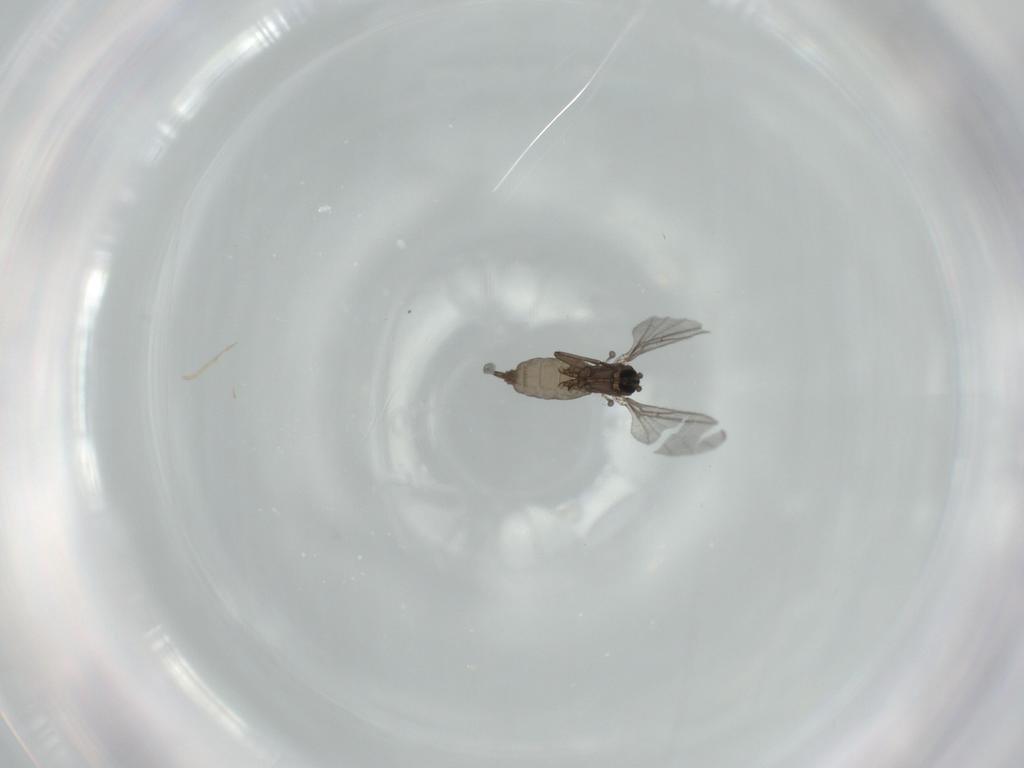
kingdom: Animalia
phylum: Arthropoda
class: Insecta
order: Diptera
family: Sciaridae
